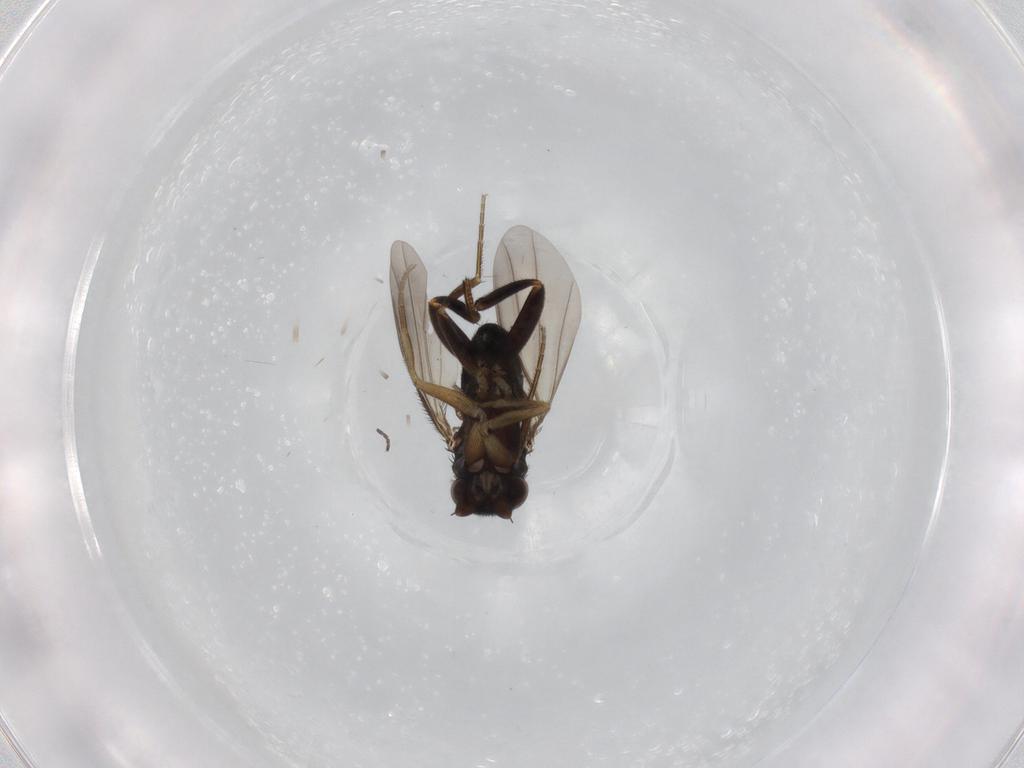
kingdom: Animalia
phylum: Arthropoda
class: Insecta
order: Diptera
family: Phoridae
